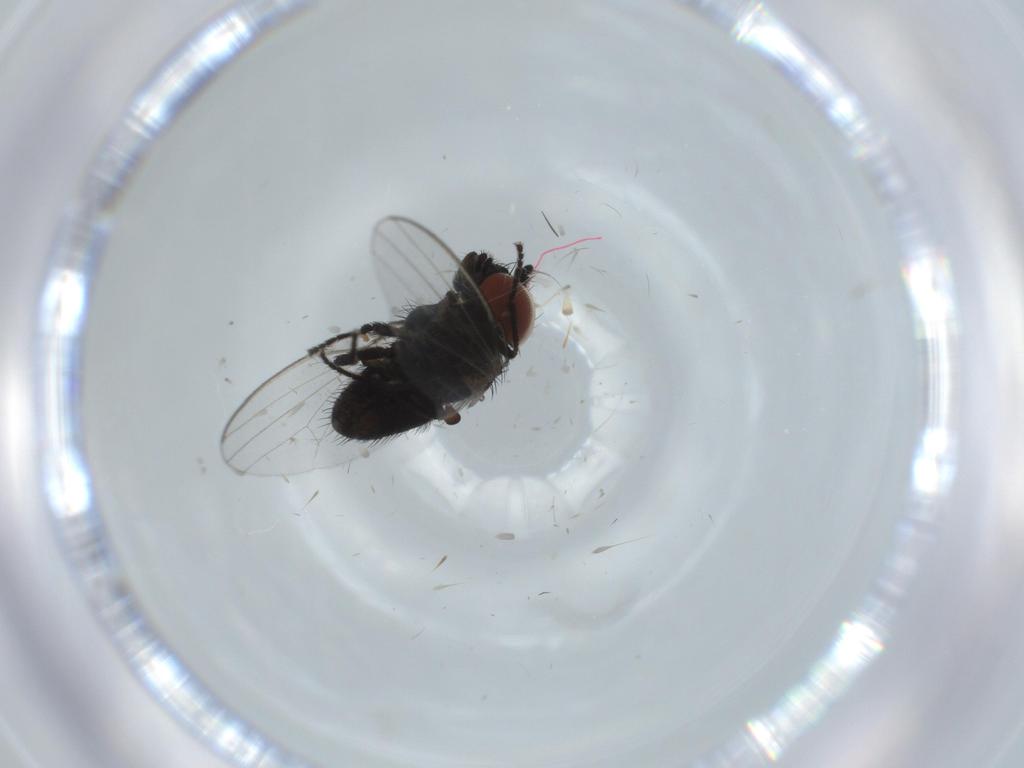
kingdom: Animalia
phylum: Arthropoda
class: Insecta
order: Diptera
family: Milichiidae
